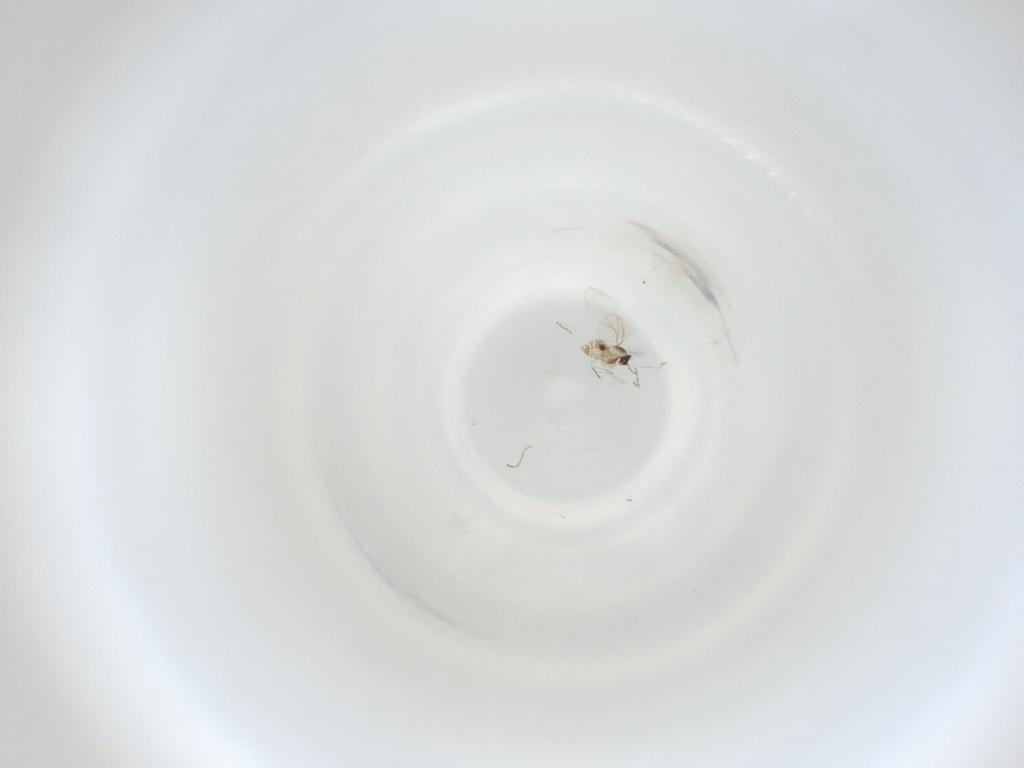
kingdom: Animalia
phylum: Arthropoda
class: Insecta
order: Diptera
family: Cecidomyiidae
